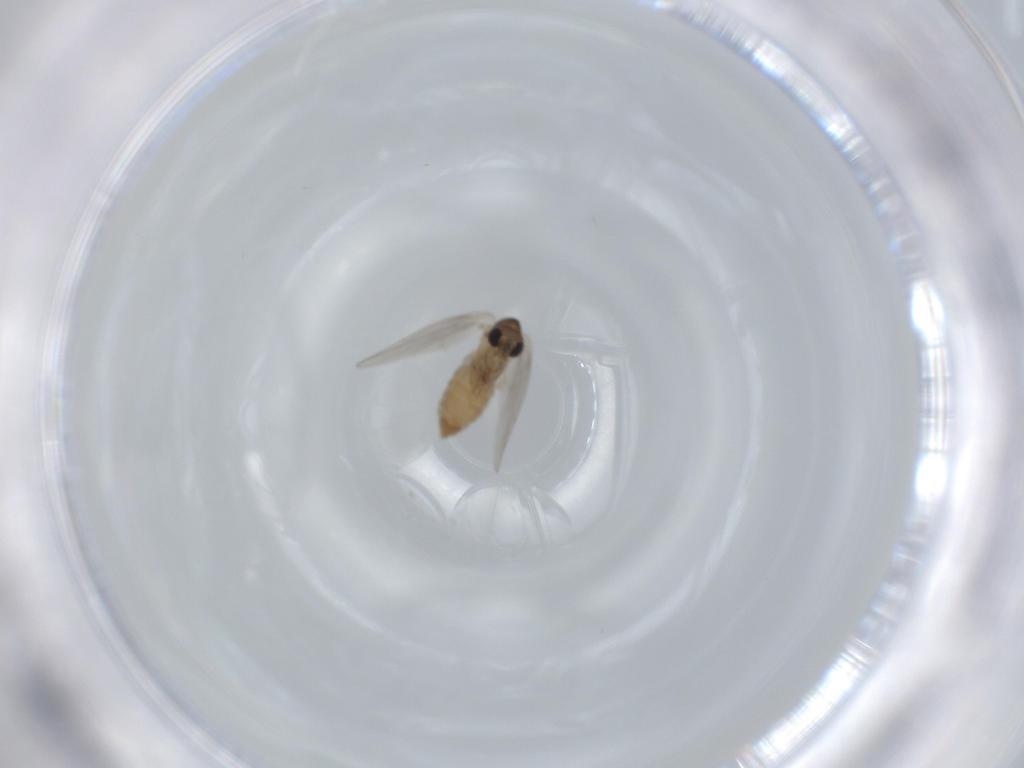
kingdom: Animalia
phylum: Arthropoda
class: Insecta
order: Diptera
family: Psychodidae
